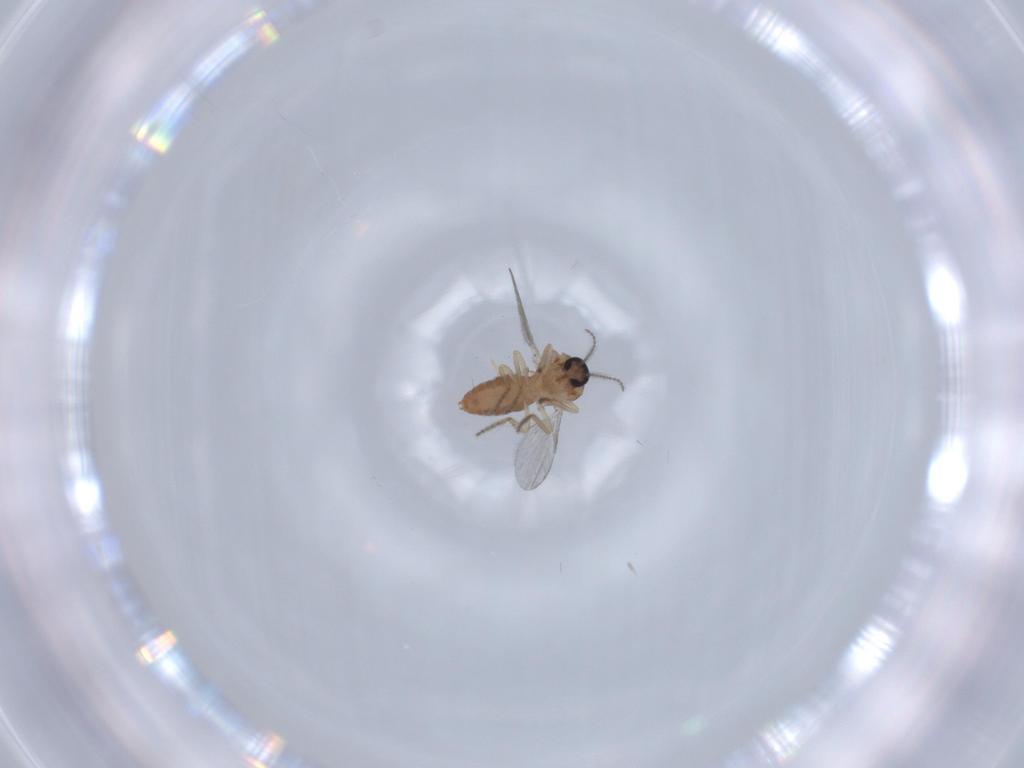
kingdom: Animalia
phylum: Arthropoda
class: Insecta
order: Diptera
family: Ceratopogonidae
